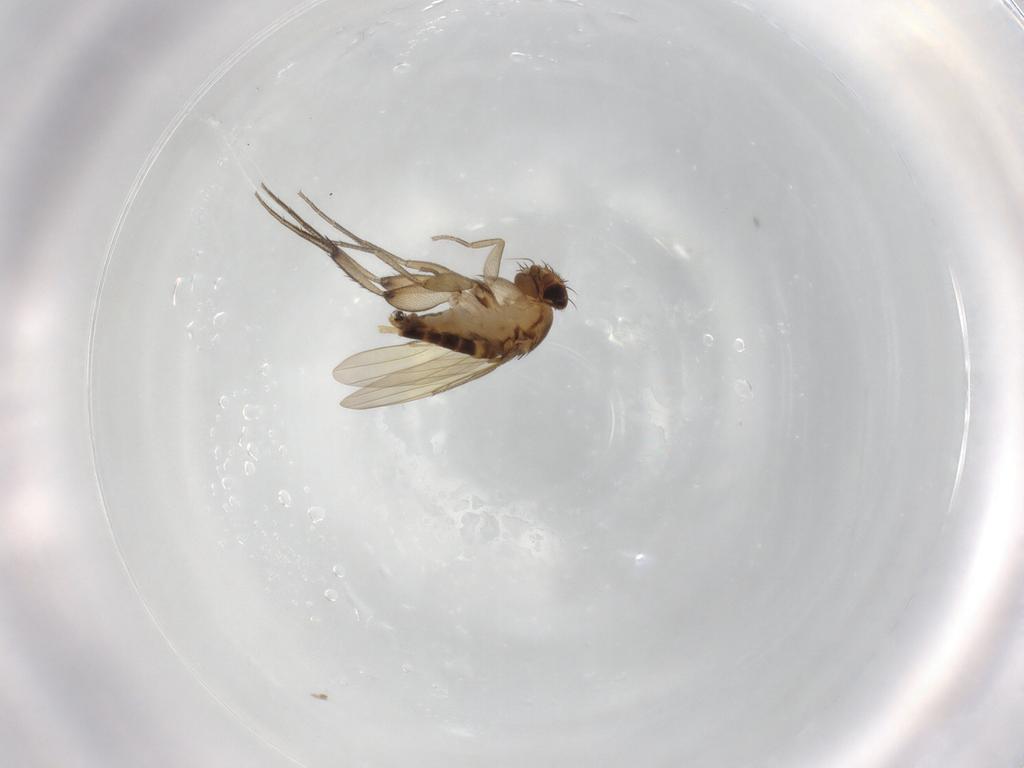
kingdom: Animalia
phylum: Arthropoda
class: Insecta
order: Diptera
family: Phoridae
